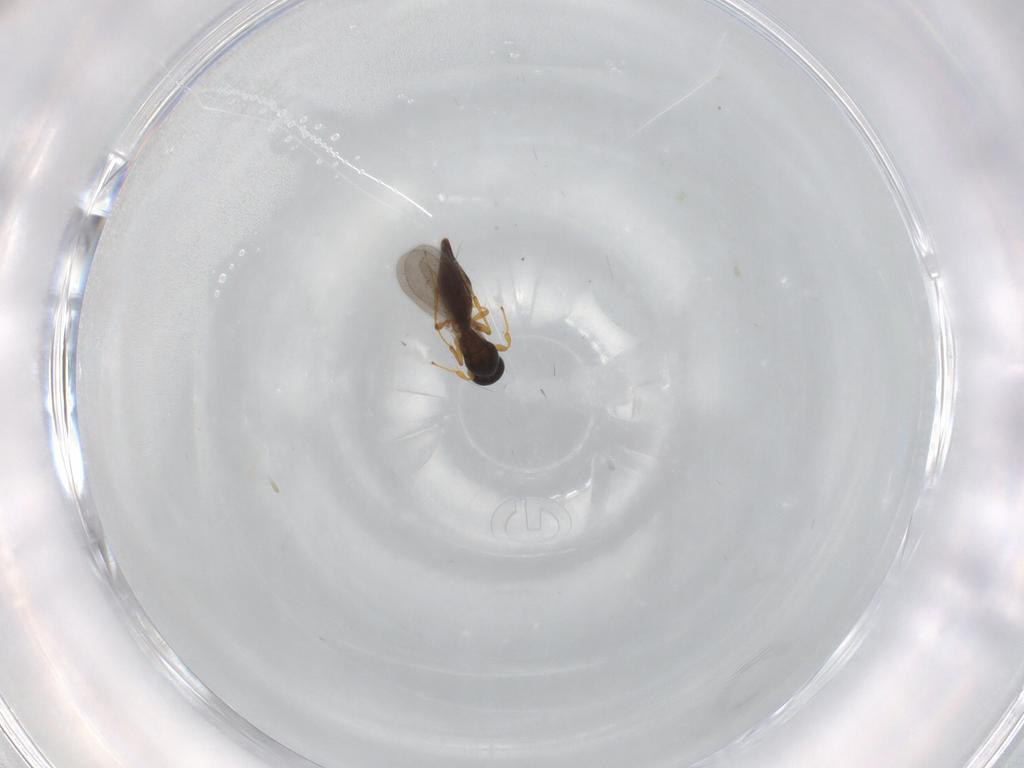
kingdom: Animalia
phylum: Arthropoda
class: Insecta
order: Hymenoptera
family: Platygastridae
